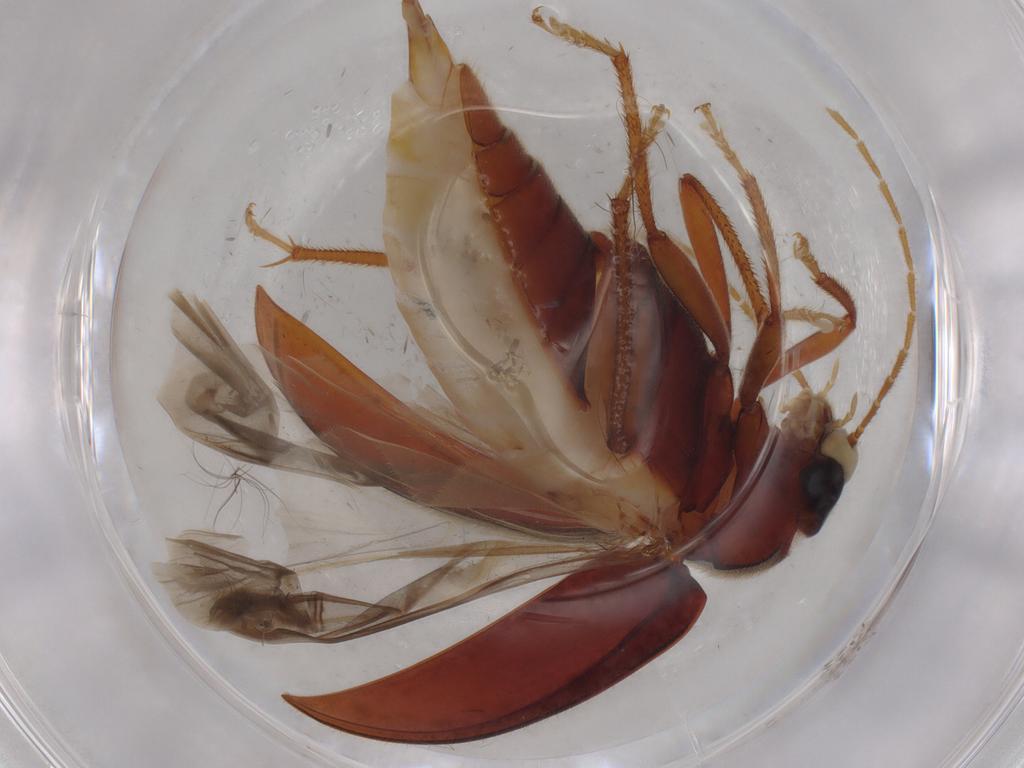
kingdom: Animalia
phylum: Arthropoda
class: Insecta
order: Coleoptera
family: Ptilodactylidae
